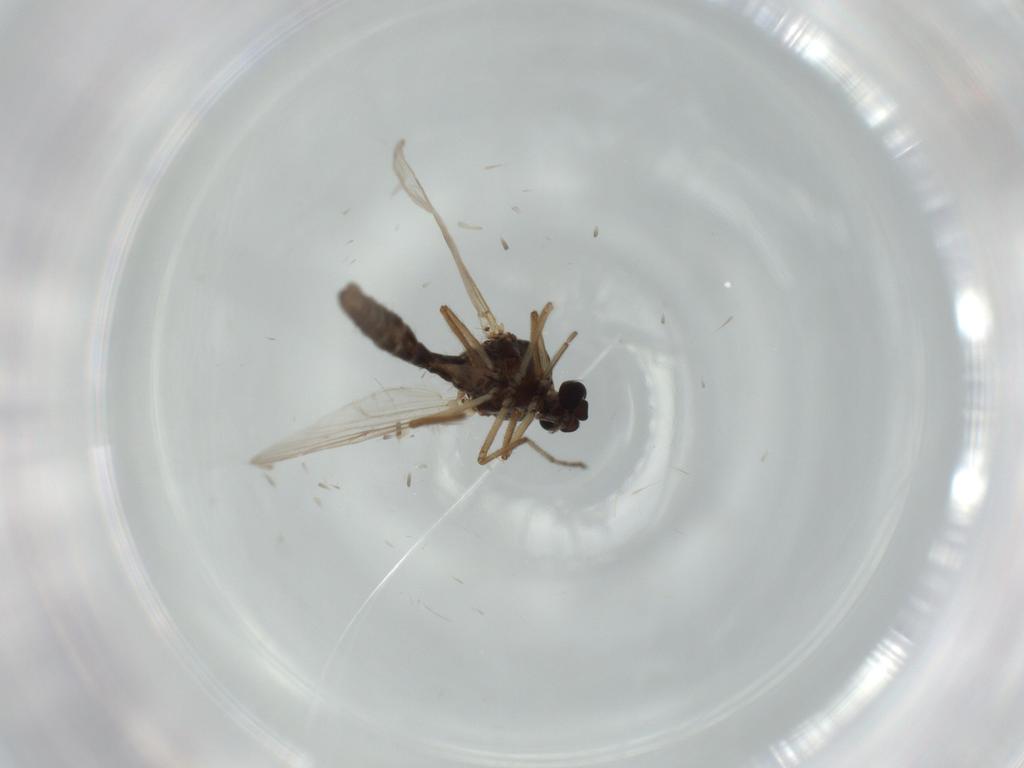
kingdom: Animalia
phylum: Arthropoda
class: Insecta
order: Diptera
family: Ceratopogonidae
